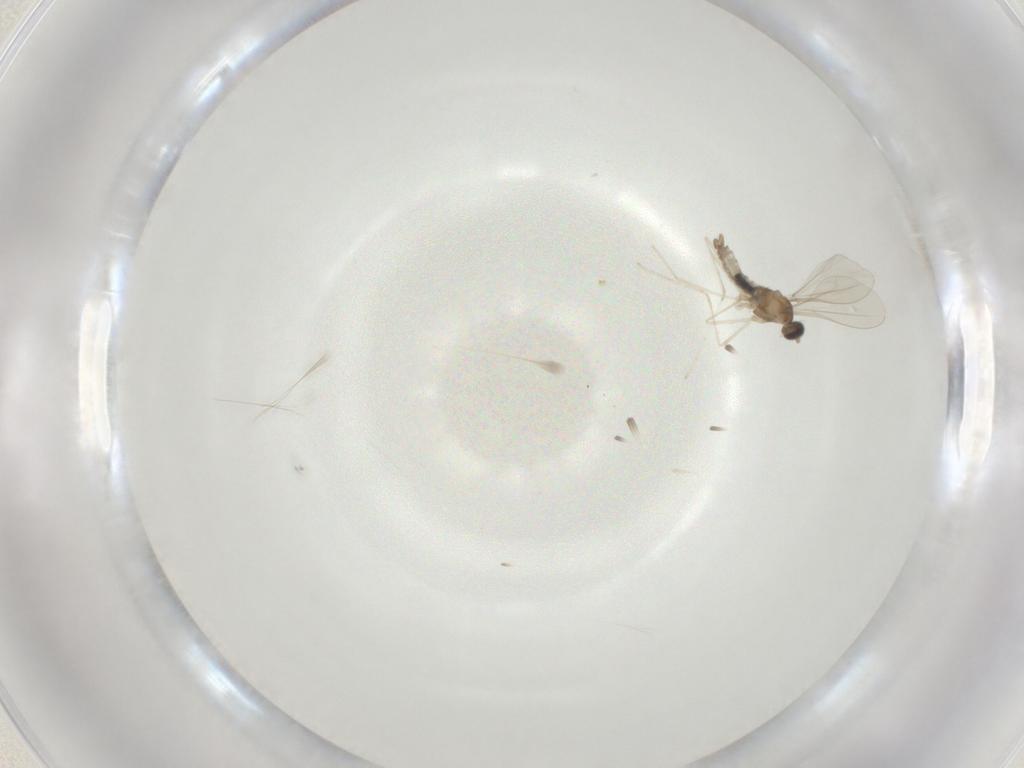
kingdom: Animalia
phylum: Arthropoda
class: Insecta
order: Diptera
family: Cecidomyiidae
